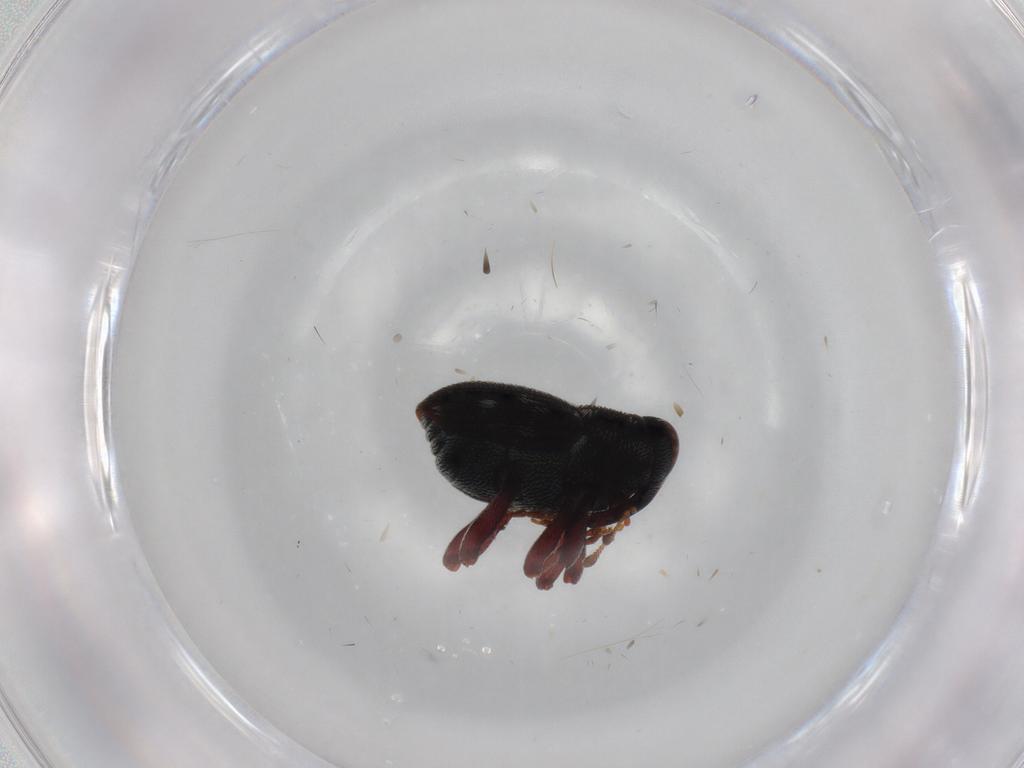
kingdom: Animalia
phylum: Arthropoda
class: Insecta
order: Coleoptera
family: Curculionidae
